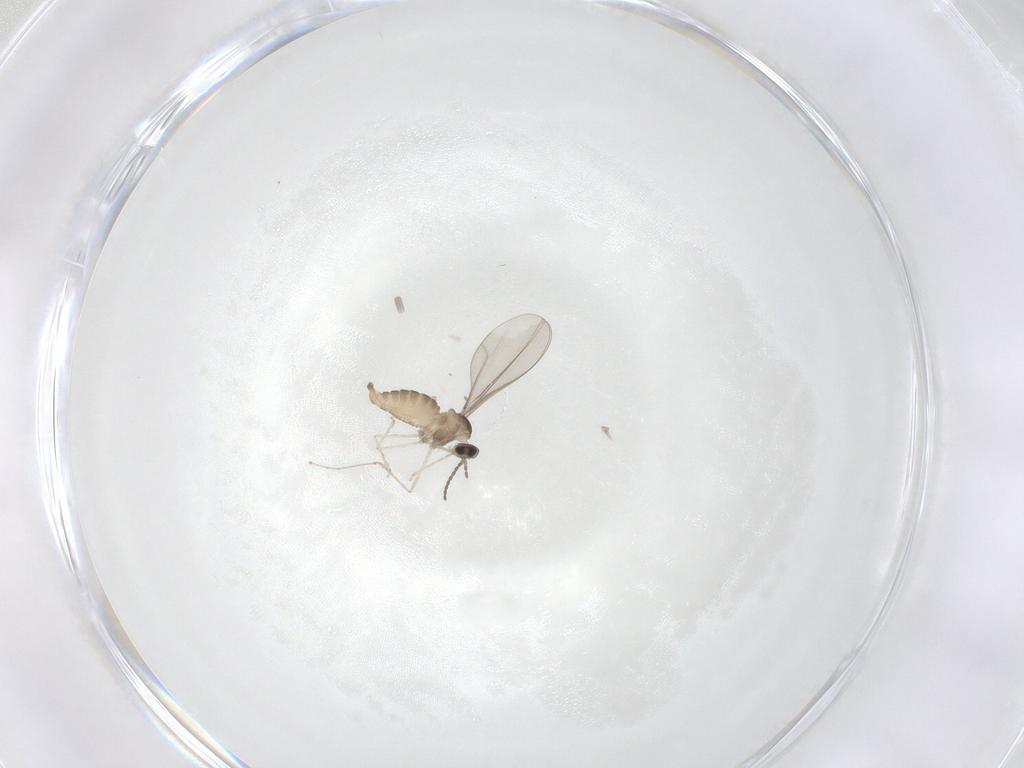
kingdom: Animalia
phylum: Arthropoda
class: Insecta
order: Diptera
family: Cecidomyiidae
